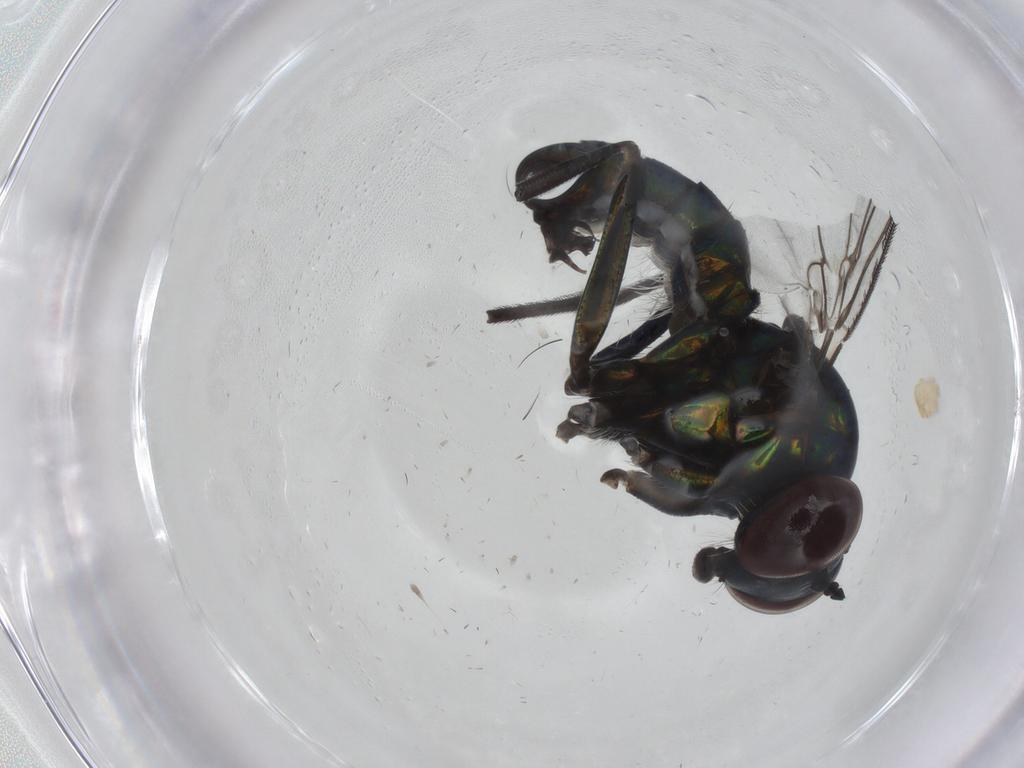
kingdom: Animalia
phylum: Arthropoda
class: Insecta
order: Diptera
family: Dolichopodidae
